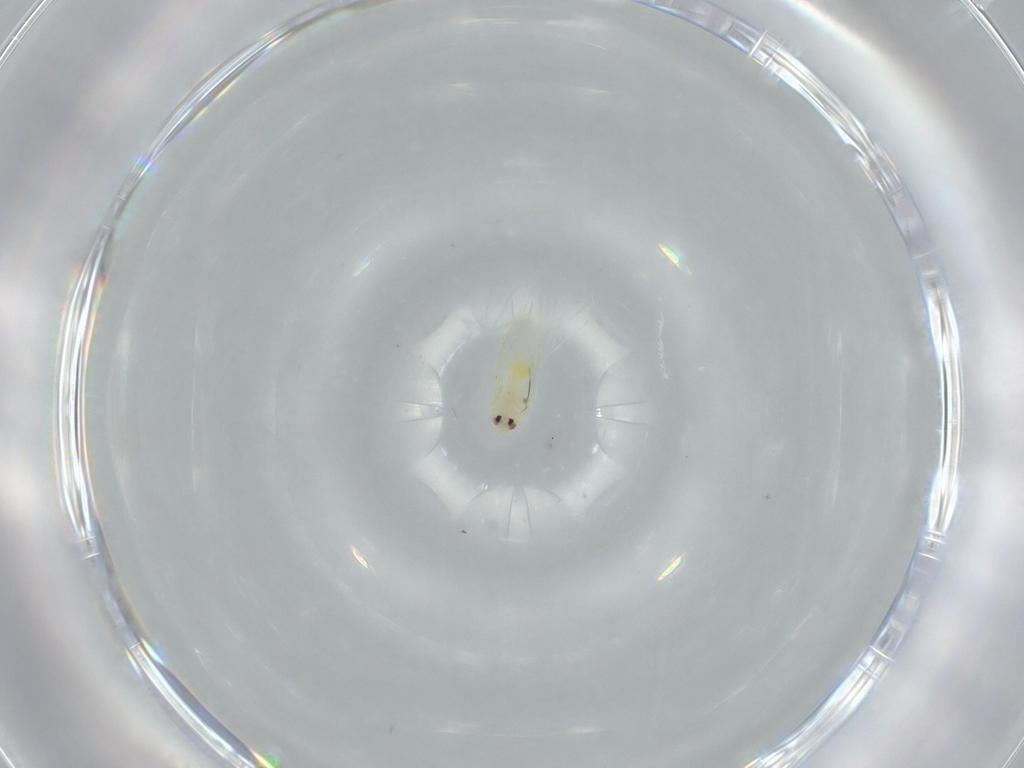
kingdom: Animalia
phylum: Arthropoda
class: Insecta
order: Hemiptera
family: Aleyrodidae
